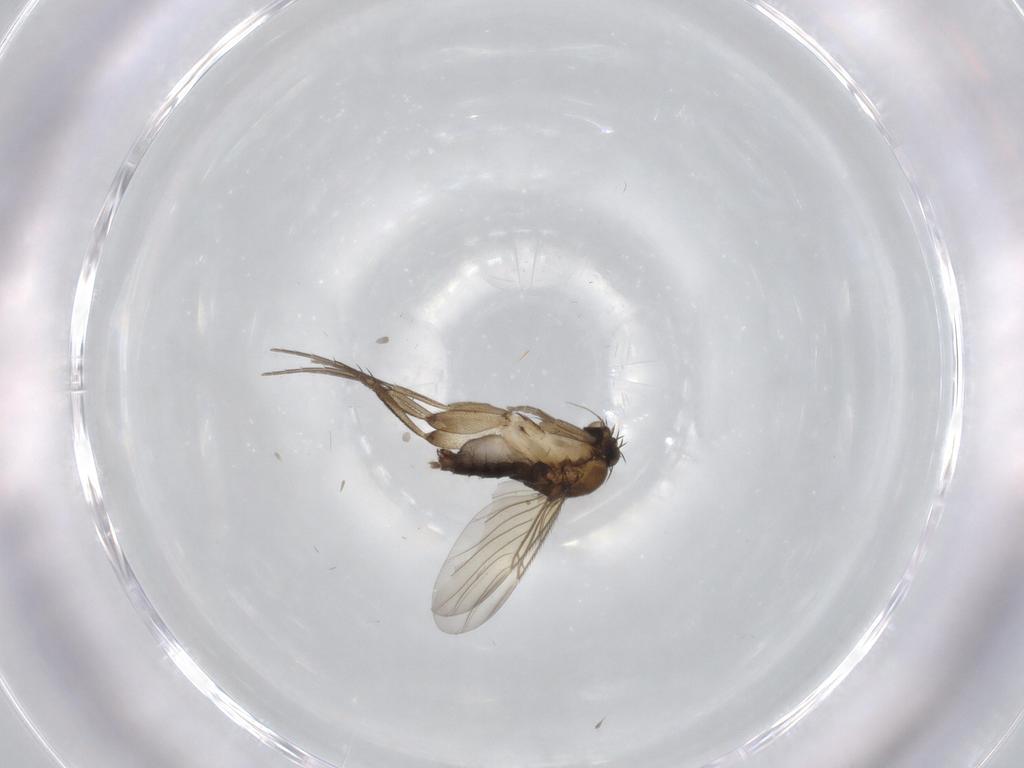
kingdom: Animalia
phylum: Arthropoda
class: Insecta
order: Diptera
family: Phoridae
